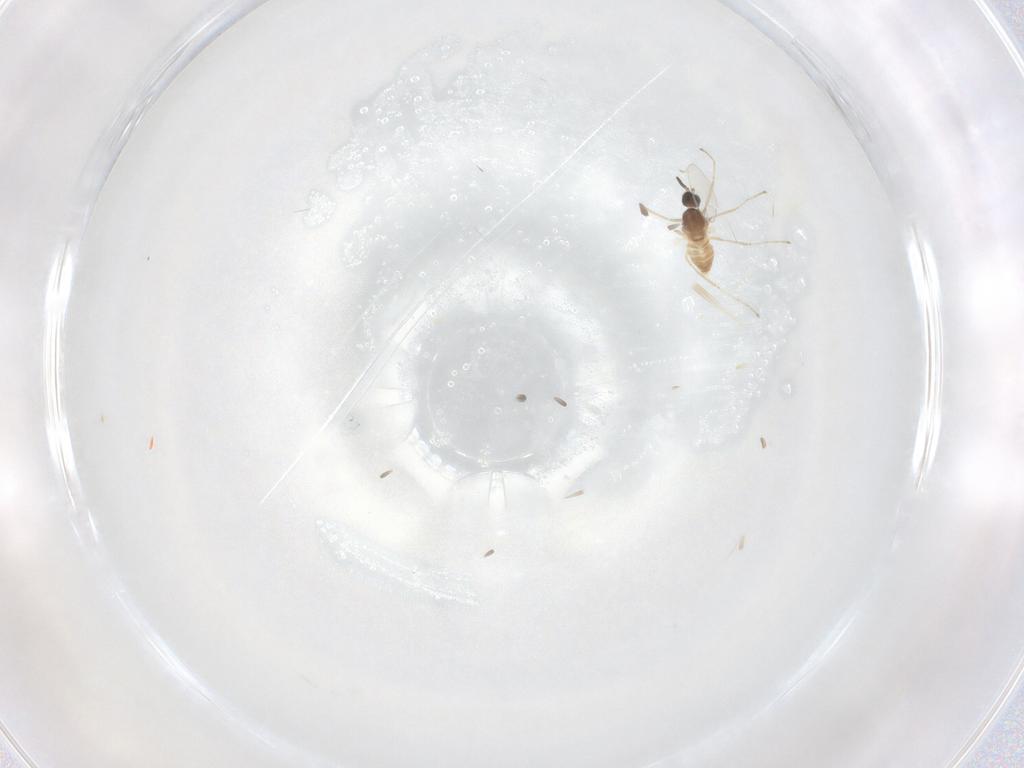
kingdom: Animalia
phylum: Arthropoda
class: Insecta
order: Diptera
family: Cecidomyiidae
